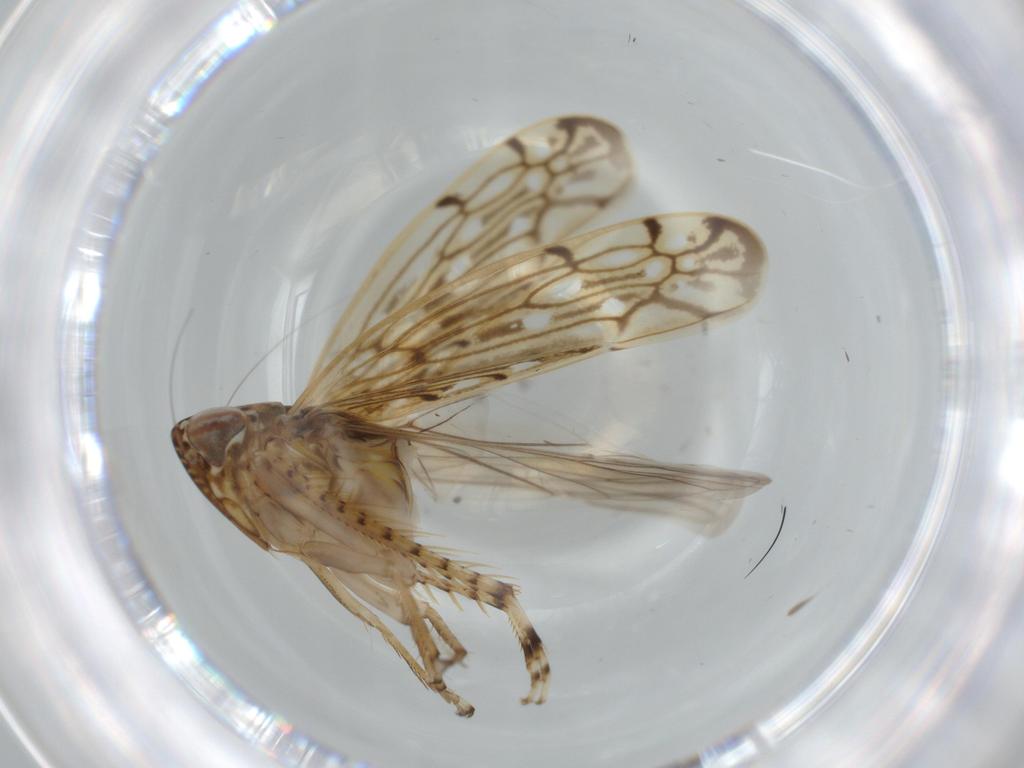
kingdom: Animalia
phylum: Arthropoda
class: Insecta
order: Hemiptera
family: Cicadellidae
